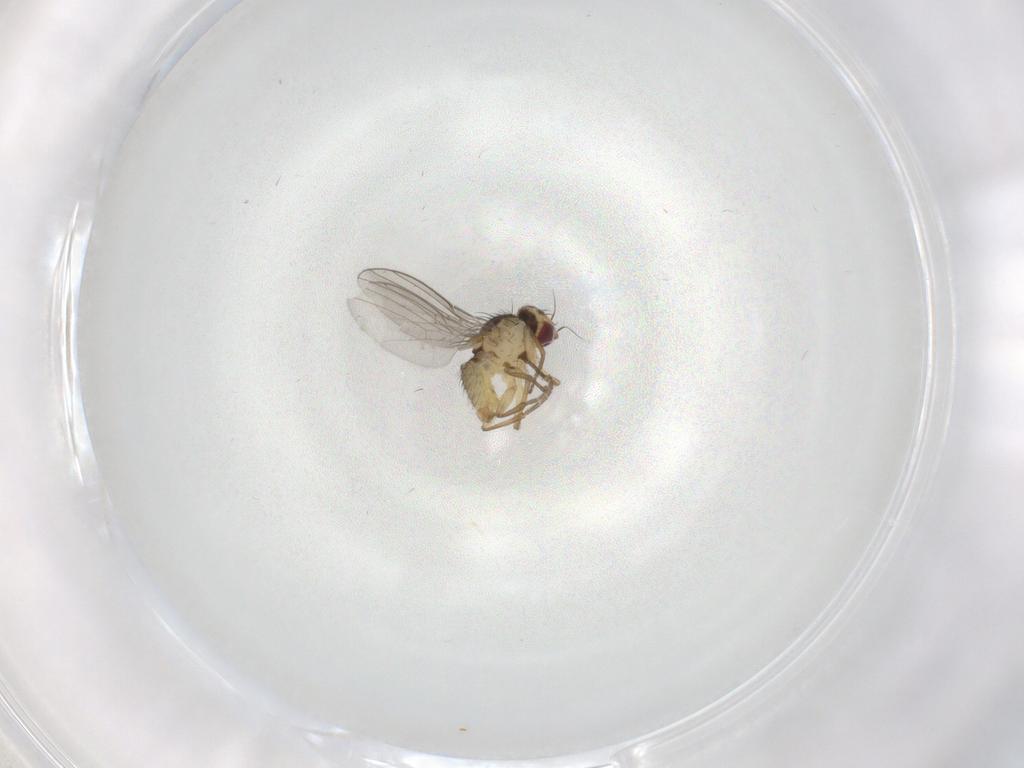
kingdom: Animalia
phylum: Arthropoda
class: Insecta
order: Diptera
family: Agromyzidae
